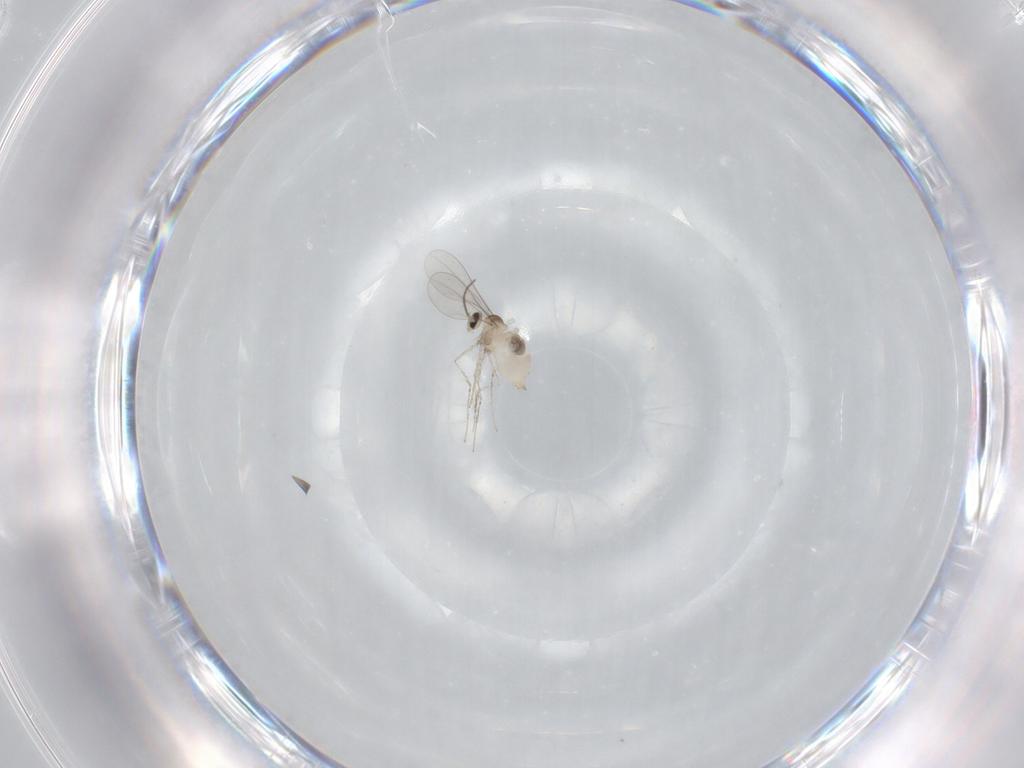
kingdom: Animalia
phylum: Arthropoda
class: Insecta
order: Diptera
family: Cecidomyiidae
